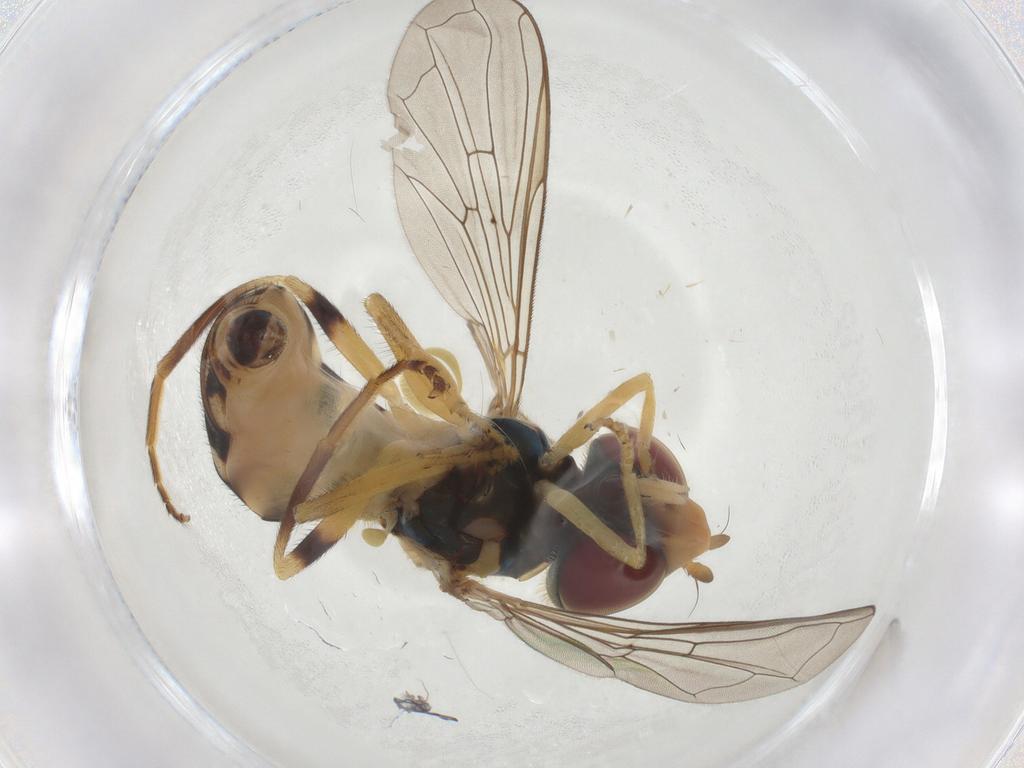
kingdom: Animalia
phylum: Arthropoda
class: Insecta
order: Diptera
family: Syrphidae
